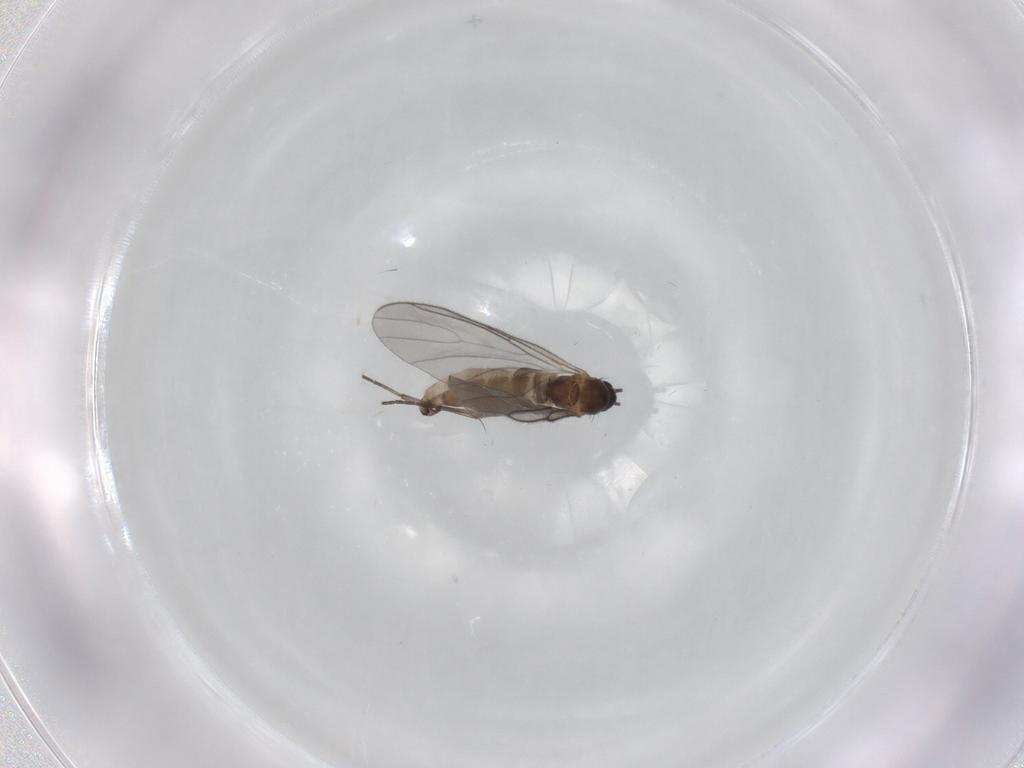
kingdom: Animalia
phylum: Arthropoda
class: Insecta
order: Diptera
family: Sciaridae
